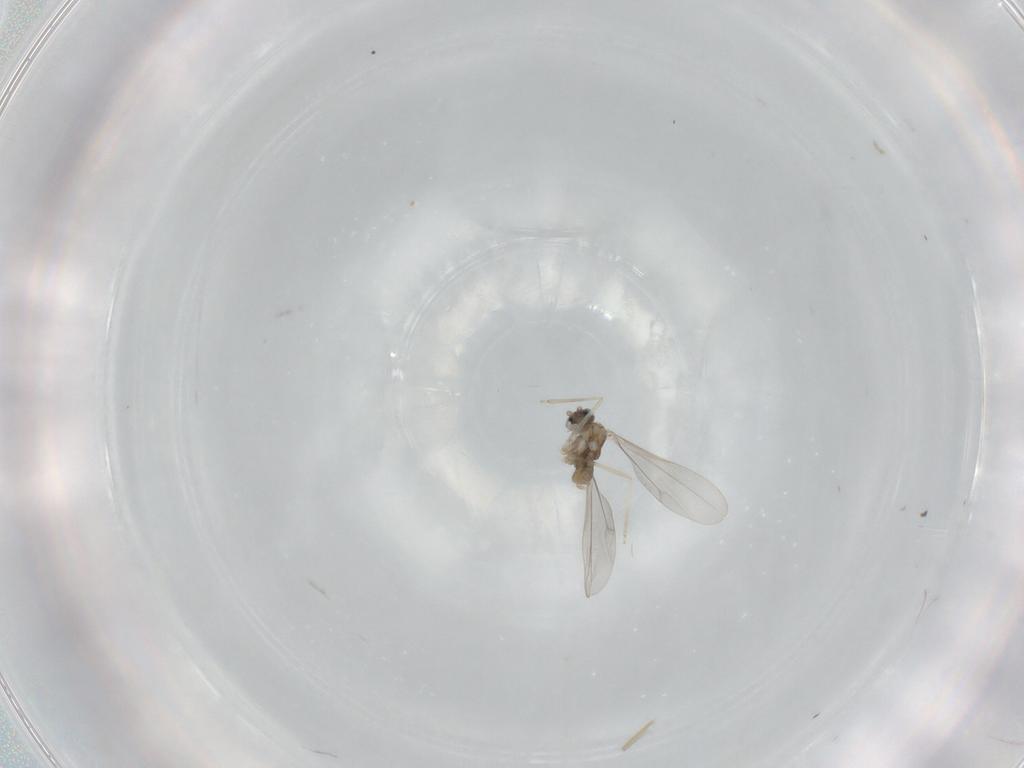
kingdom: Animalia
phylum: Arthropoda
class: Insecta
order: Diptera
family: Cecidomyiidae
